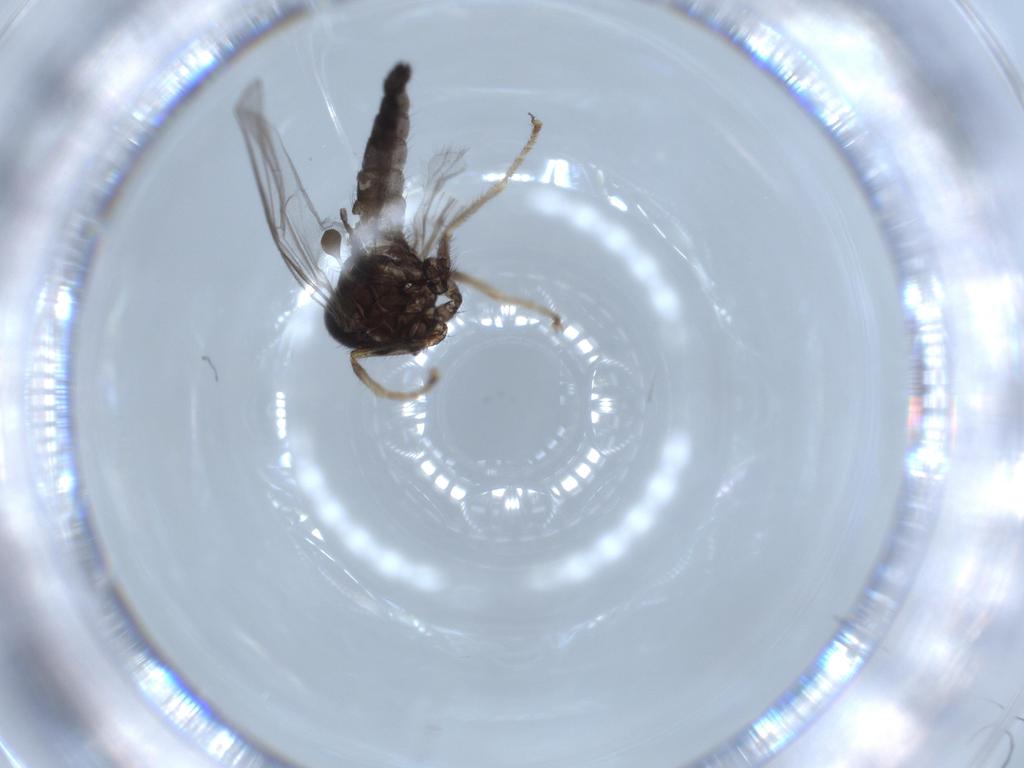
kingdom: Animalia
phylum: Arthropoda
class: Insecta
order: Diptera
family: Hybotidae
